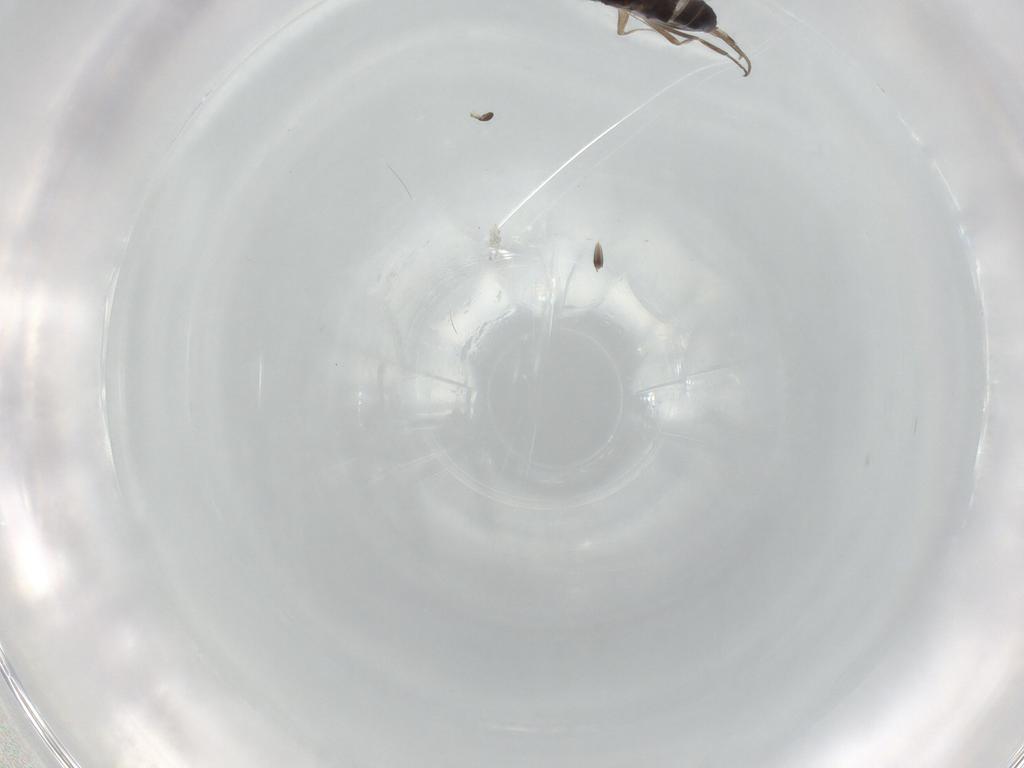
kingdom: Animalia
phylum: Arthropoda
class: Insecta
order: Diptera
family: Phoridae
